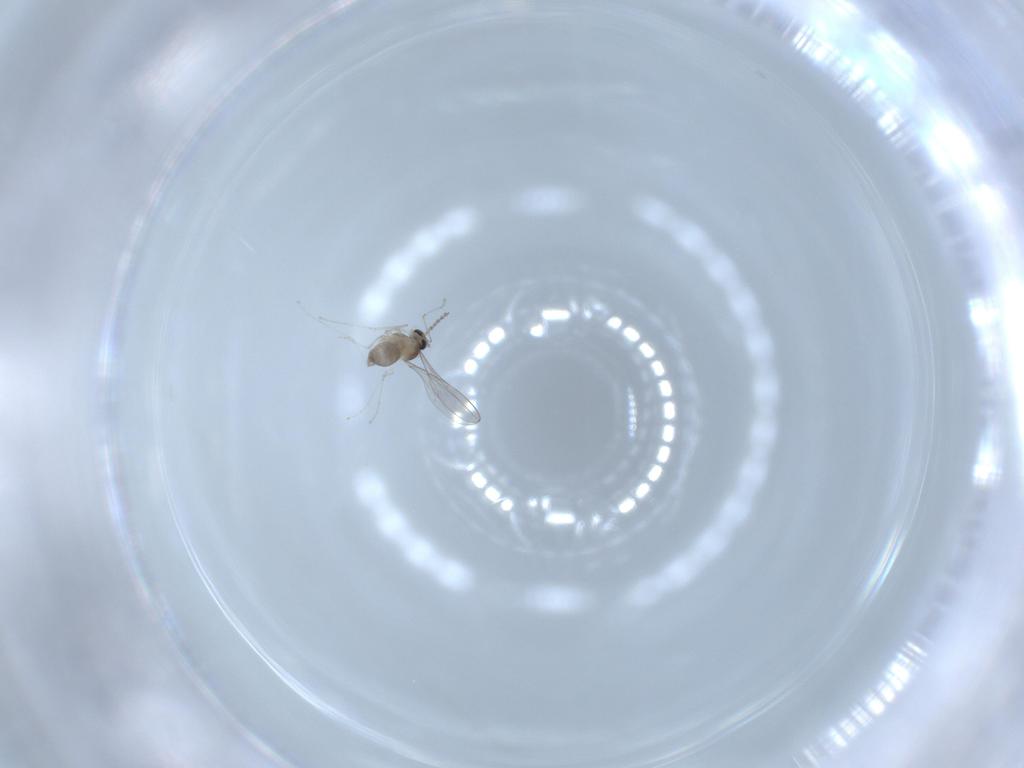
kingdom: Animalia
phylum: Arthropoda
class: Insecta
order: Diptera
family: Cecidomyiidae
